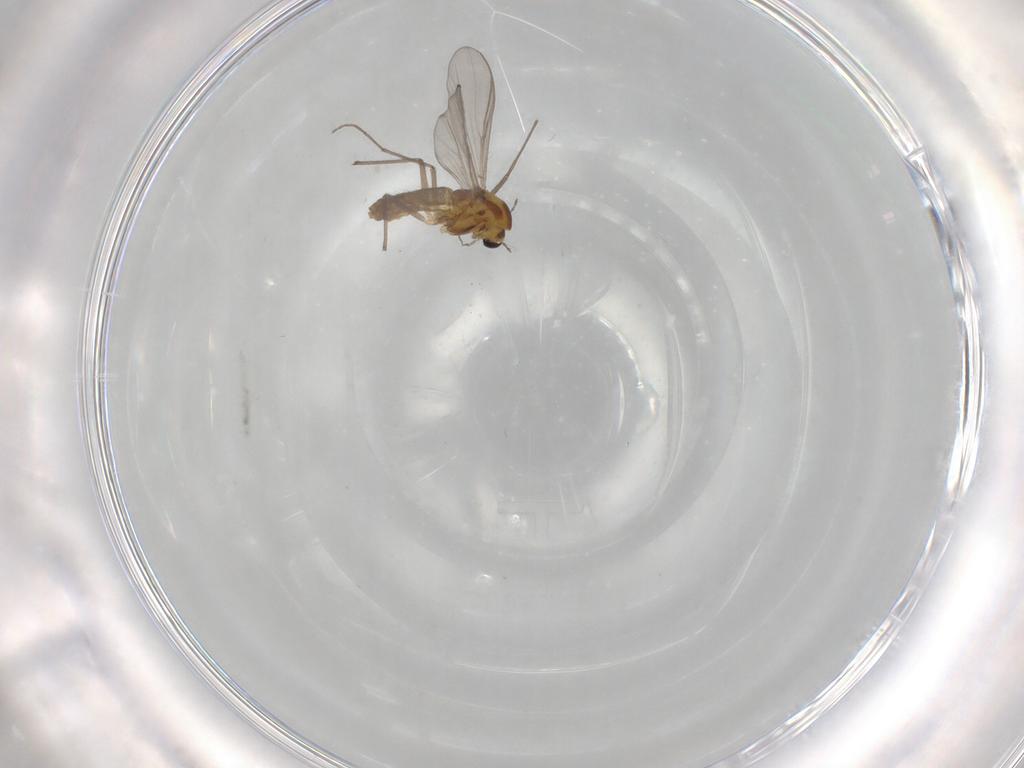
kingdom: Animalia
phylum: Arthropoda
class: Insecta
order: Diptera
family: Chironomidae
